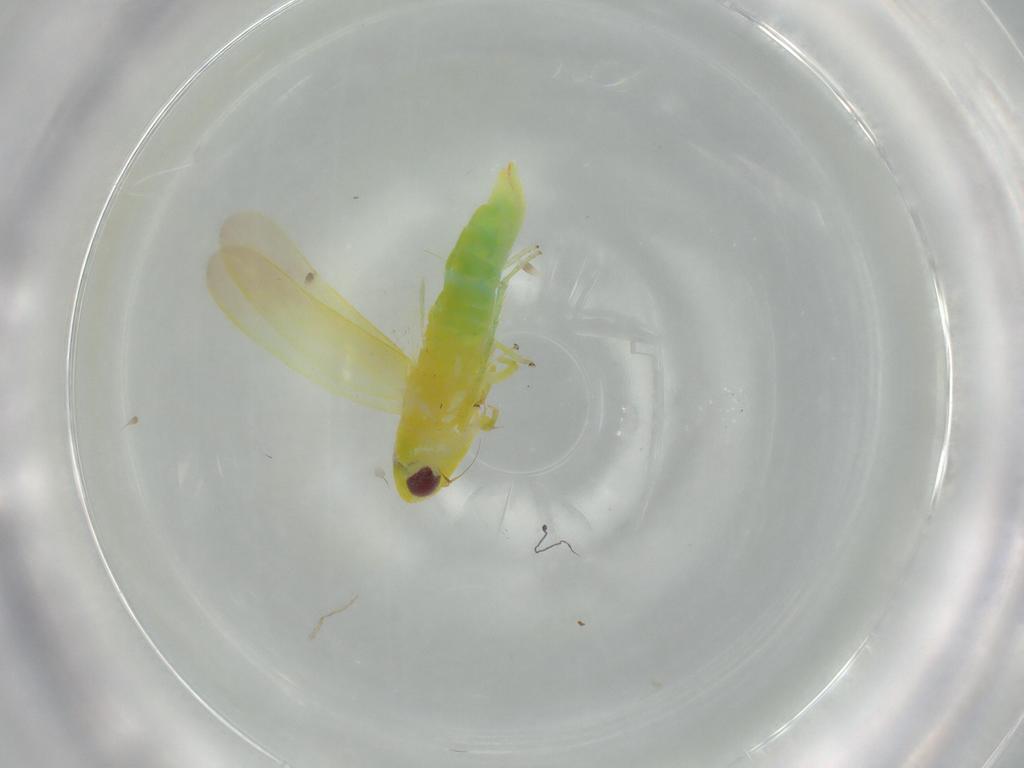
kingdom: Animalia
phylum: Arthropoda
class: Insecta
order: Hemiptera
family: Cicadellidae
